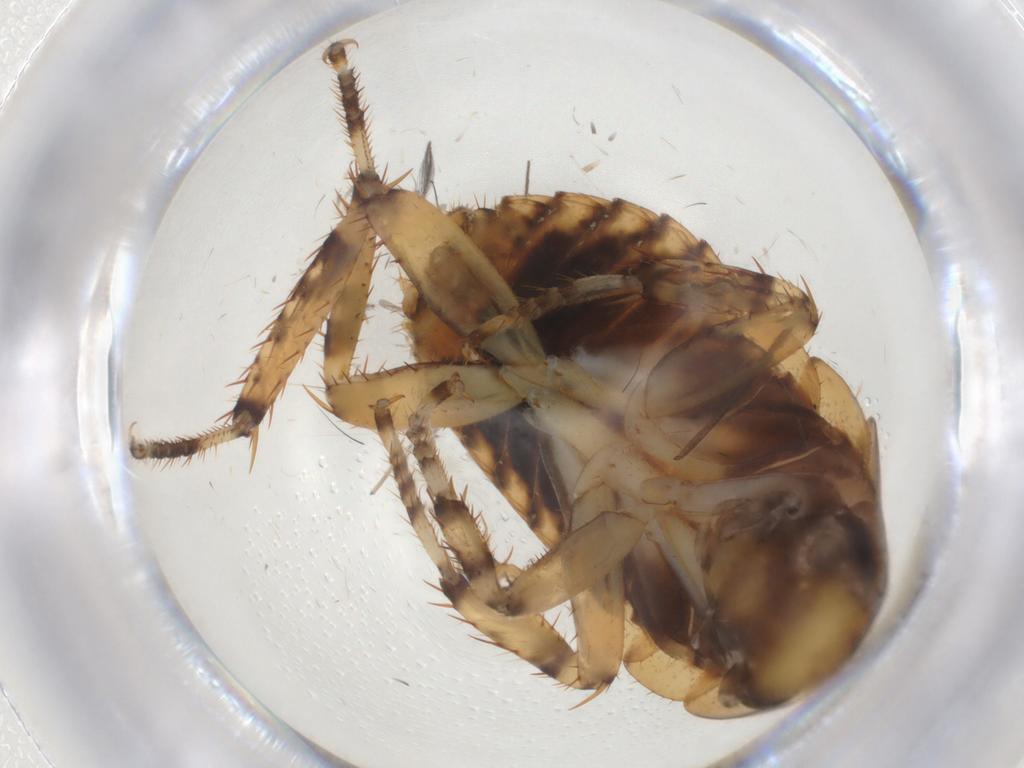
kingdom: Animalia
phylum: Arthropoda
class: Insecta
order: Blattodea
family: Blattidae
